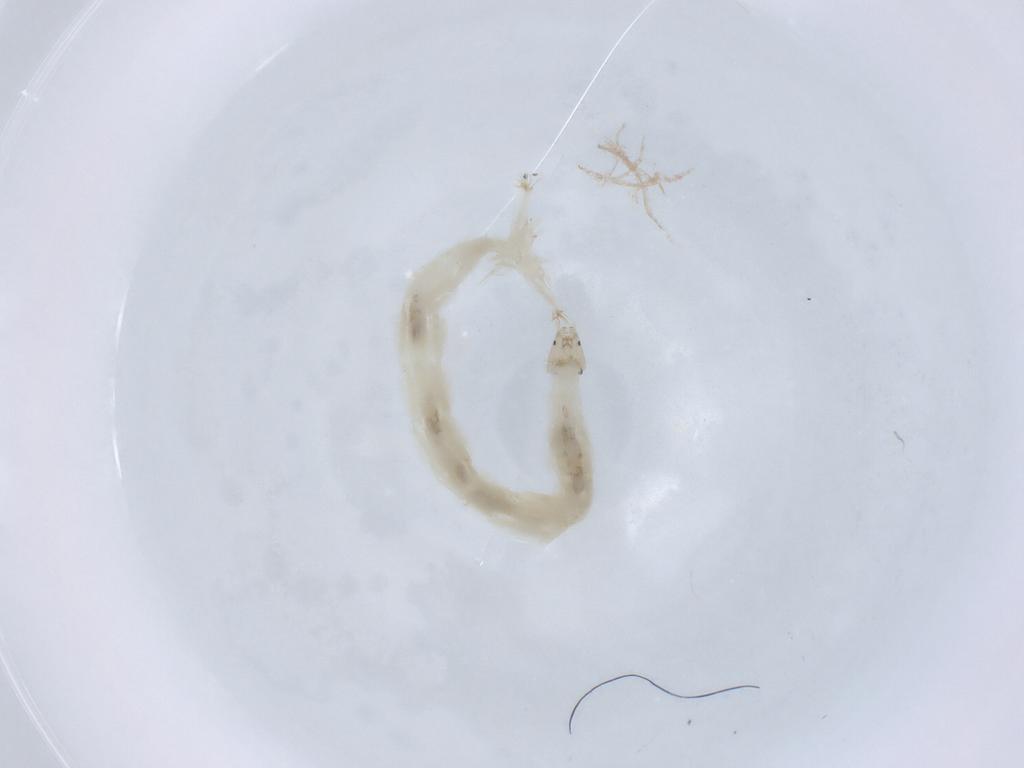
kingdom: Animalia
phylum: Arthropoda
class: Insecta
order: Diptera
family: Chironomidae
